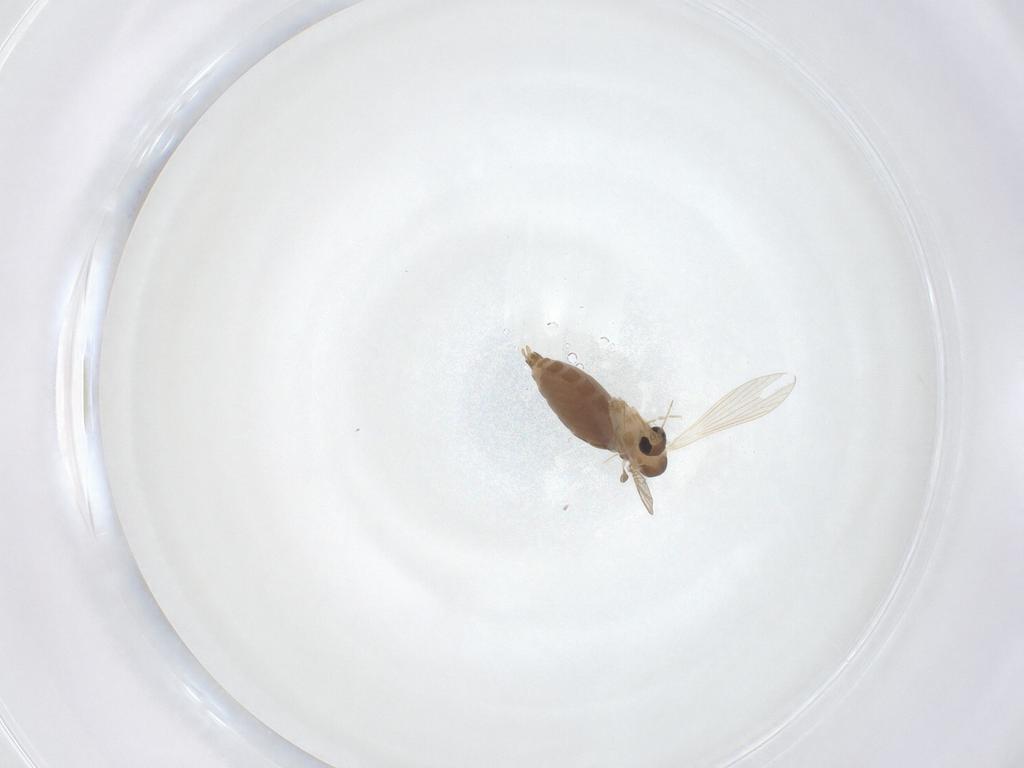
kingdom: Animalia
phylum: Arthropoda
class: Insecta
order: Diptera
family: Psychodidae
